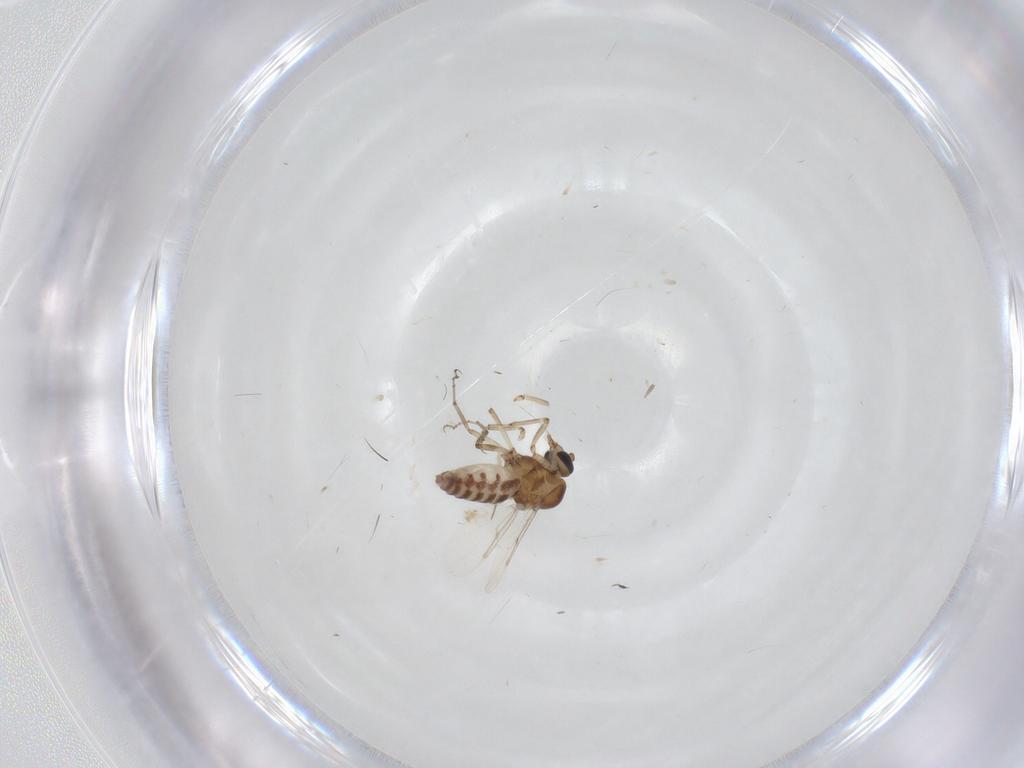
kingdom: Animalia
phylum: Arthropoda
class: Insecta
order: Diptera
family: Ceratopogonidae
